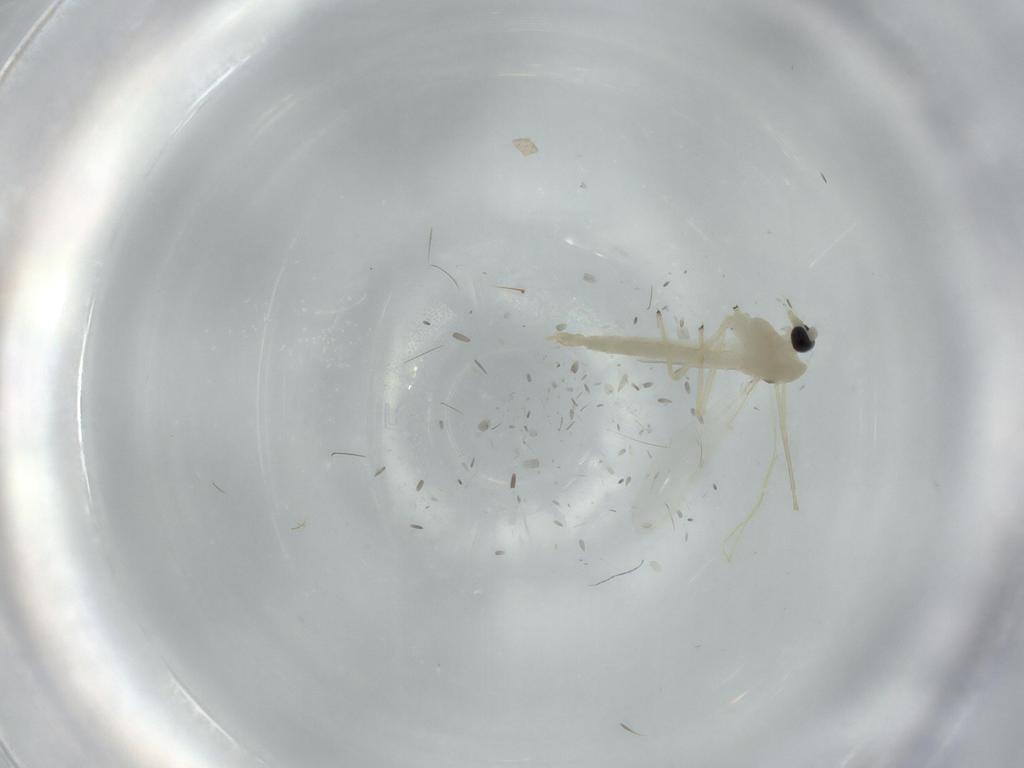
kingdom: Animalia
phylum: Arthropoda
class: Insecta
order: Diptera
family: Chironomidae
